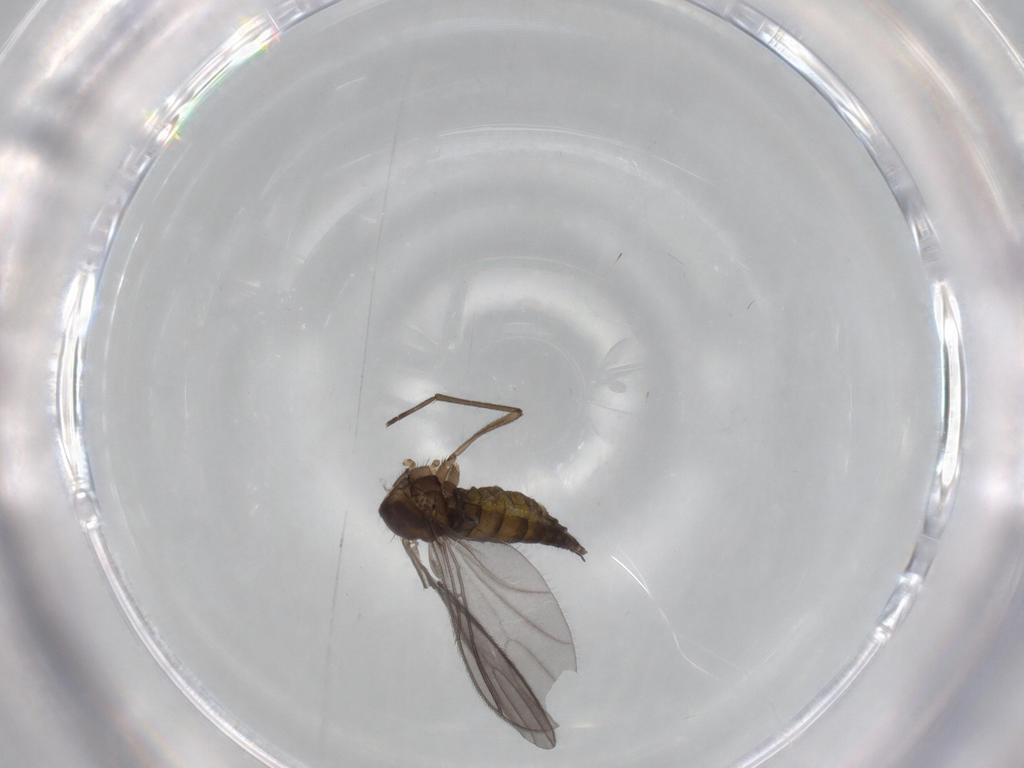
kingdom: Animalia
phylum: Arthropoda
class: Insecta
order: Diptera
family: Sciaridae
